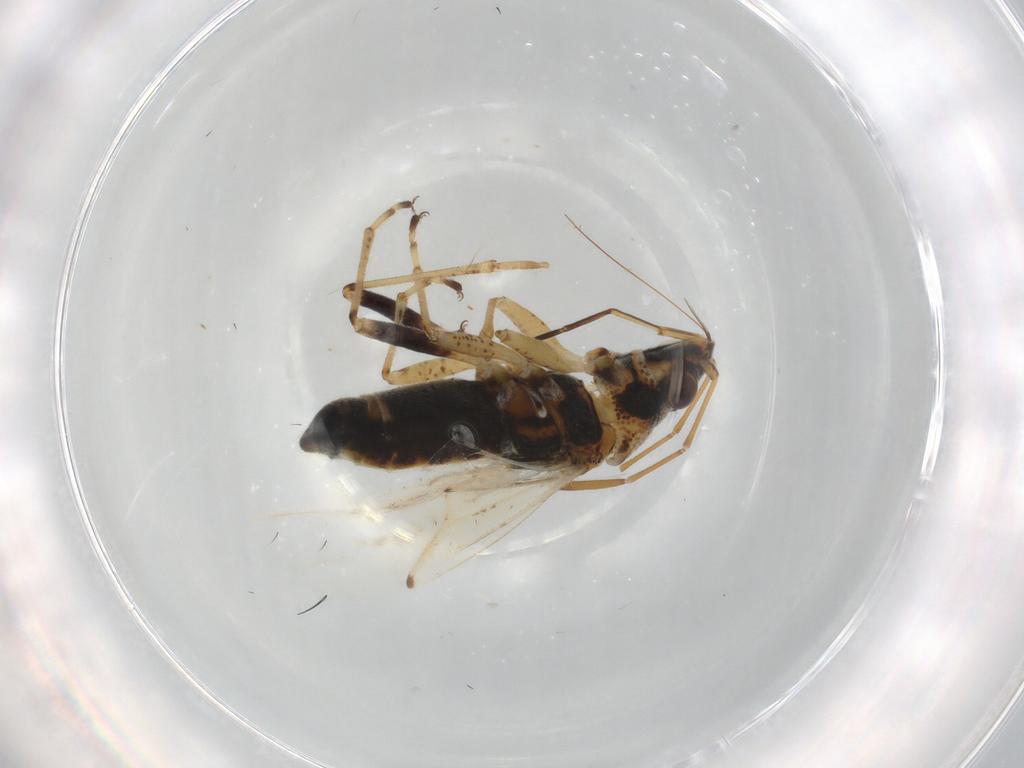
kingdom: Animalia
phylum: Arthropoda
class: Insecta
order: Hemiptera
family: Lygaeidae
